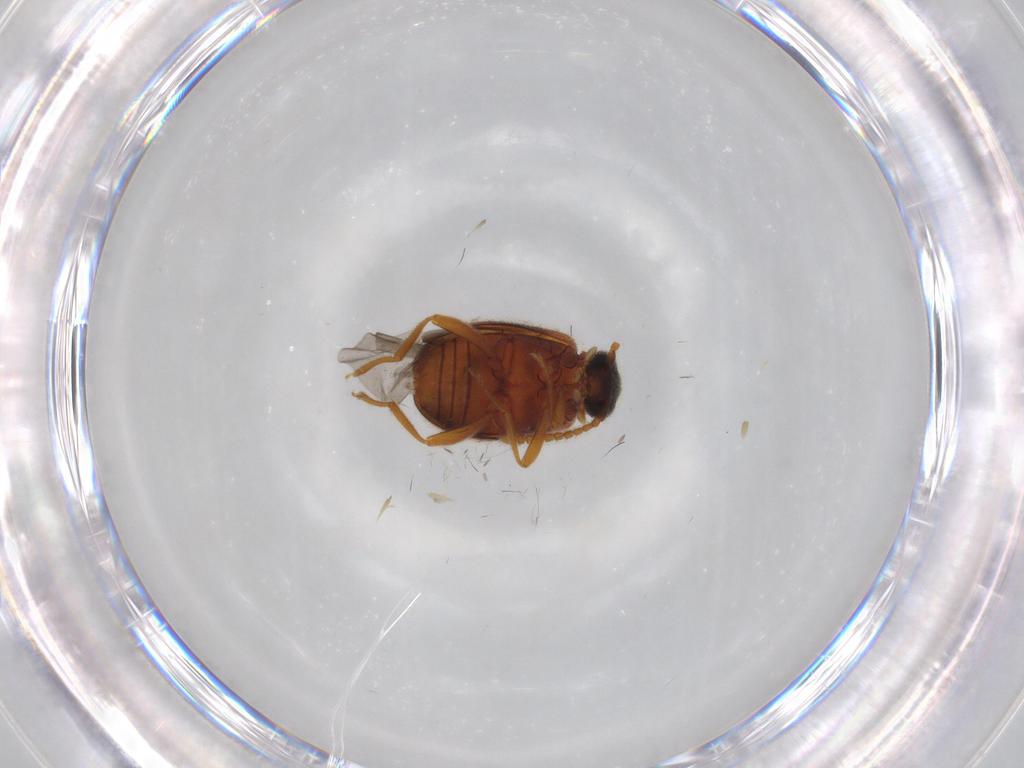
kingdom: Animalia
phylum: Arthropoda
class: Insecta
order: Coleoptera
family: Aderidae
